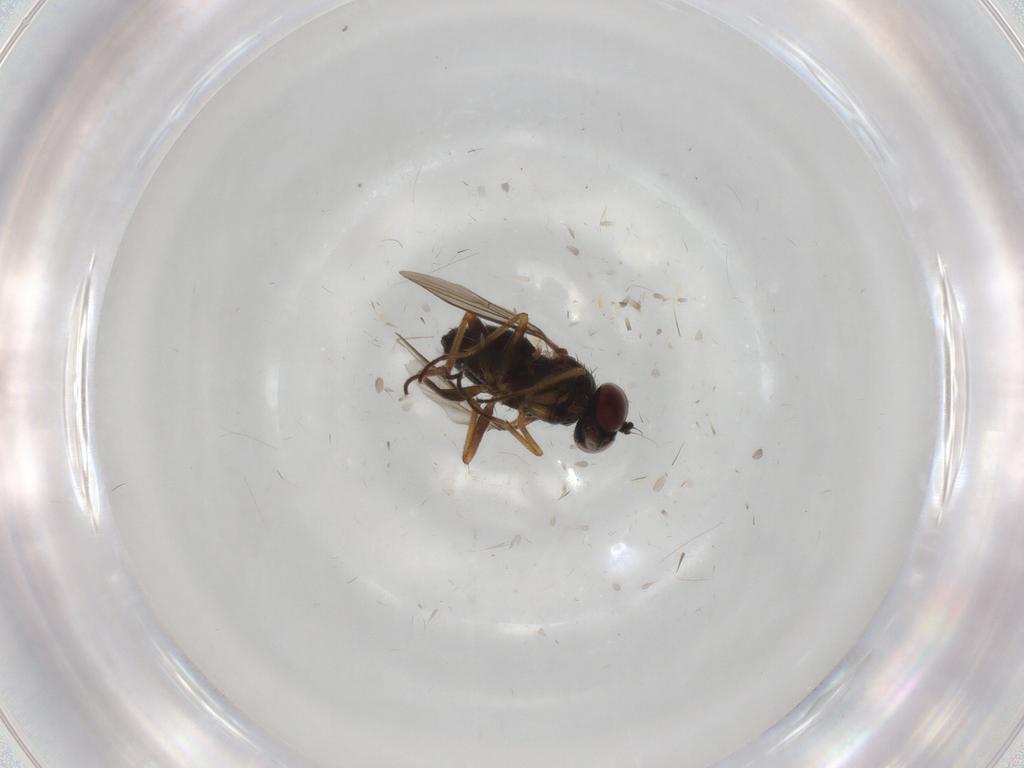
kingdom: Animalia
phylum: Arthropoda
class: Insecta
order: Diptera
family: Dolichopodidae
